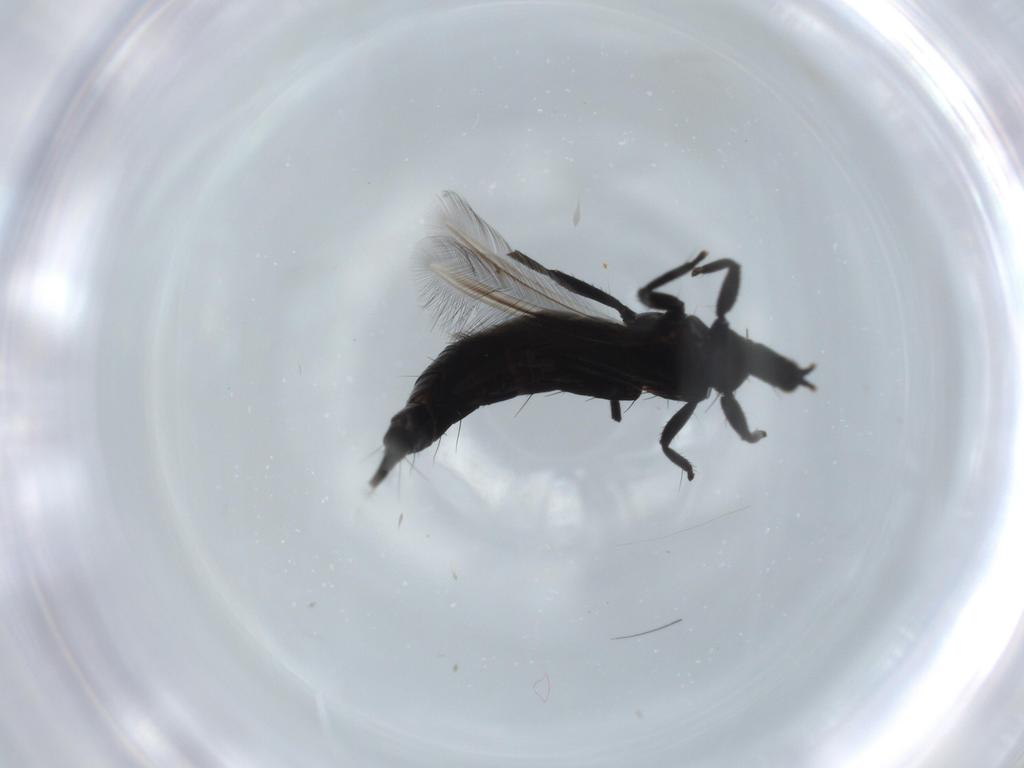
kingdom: Animalia
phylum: Arthropoda
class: Insecta
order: Thysanoptera
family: Phlaeothripidae
